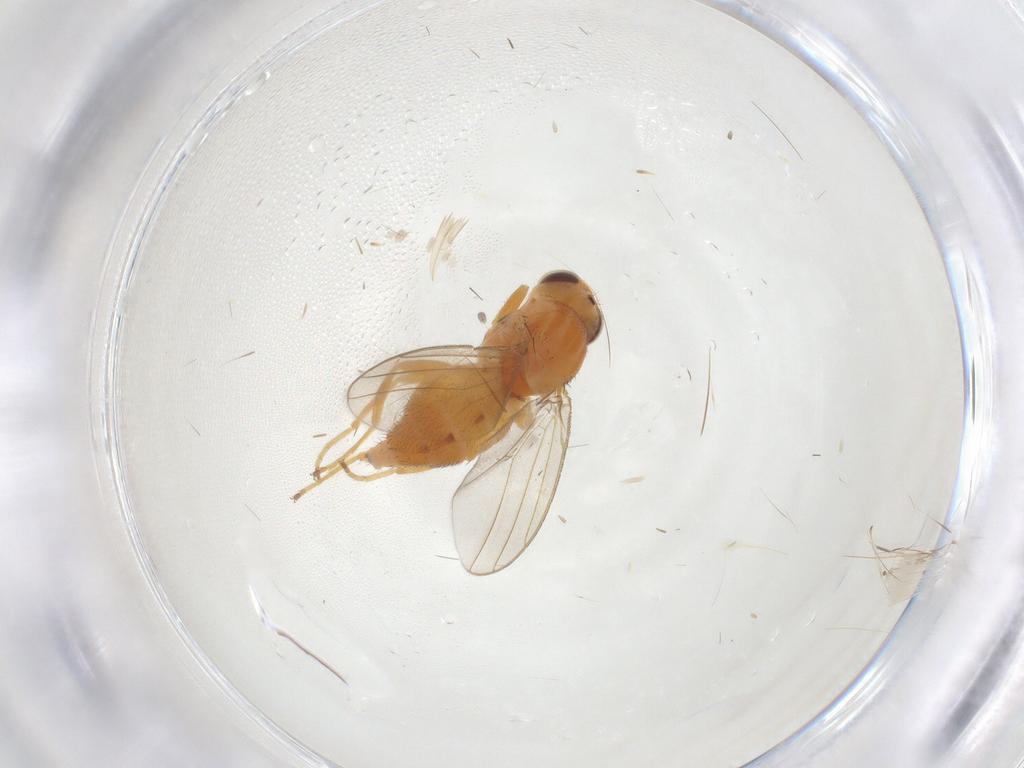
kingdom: Animalia
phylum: Arthropoda
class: Insecta
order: Diptera
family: Chloropidae
